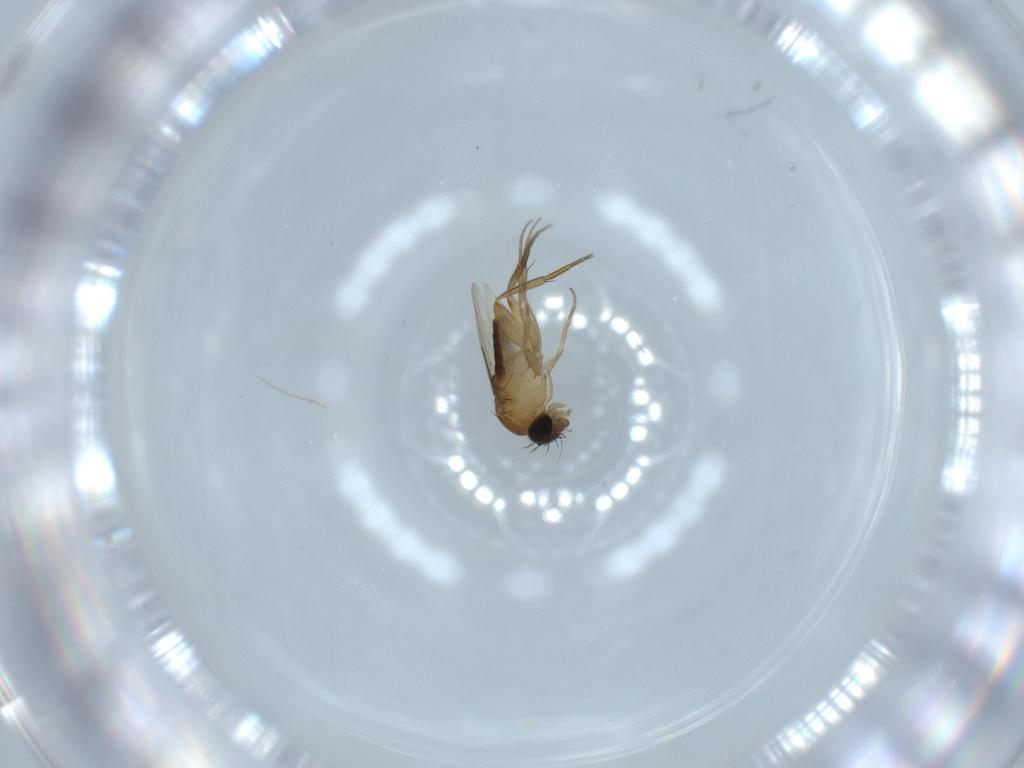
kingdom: Animalia
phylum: Arthropoda
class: Insecta
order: Diptera
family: Phoridae
